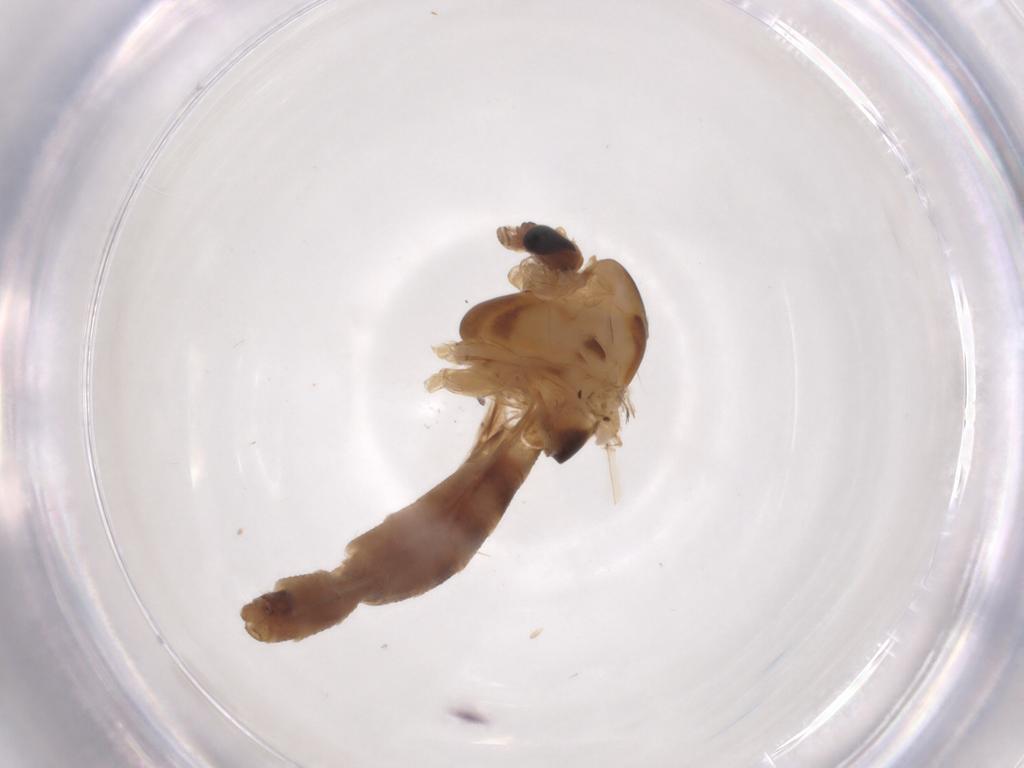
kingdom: Animalia
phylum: Arthropoda
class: Insecta
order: Diptera
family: Chironomidae
